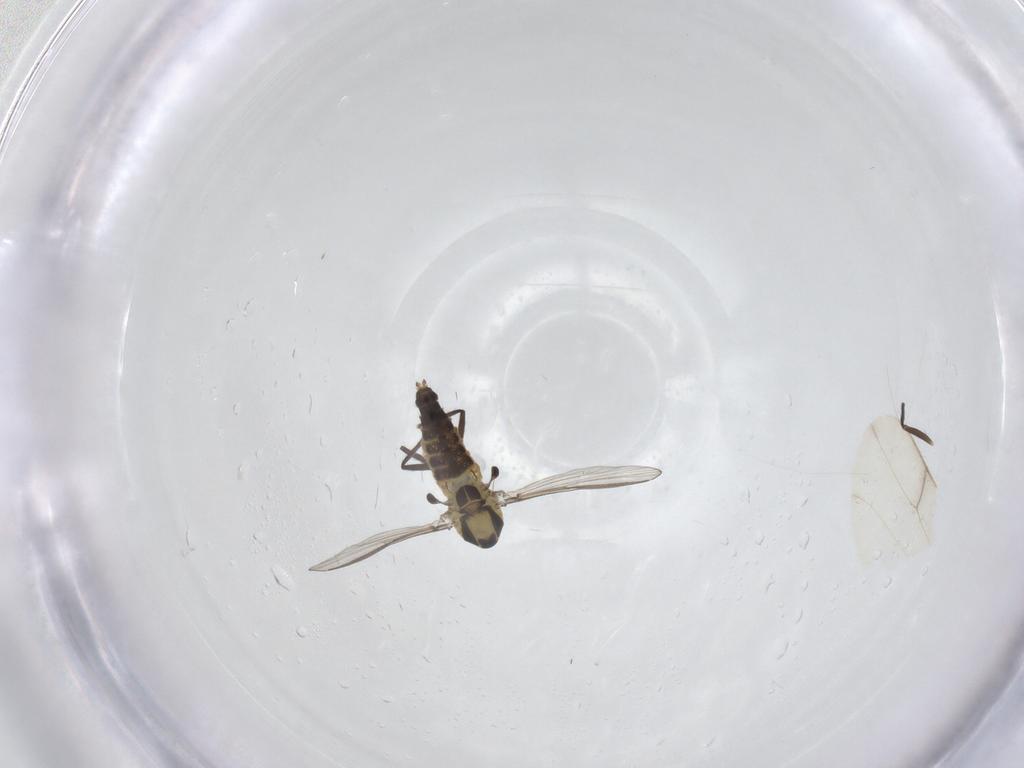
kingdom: Animalia
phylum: Arthropoda
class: Insecta
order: Diptera
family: Chironomidae
